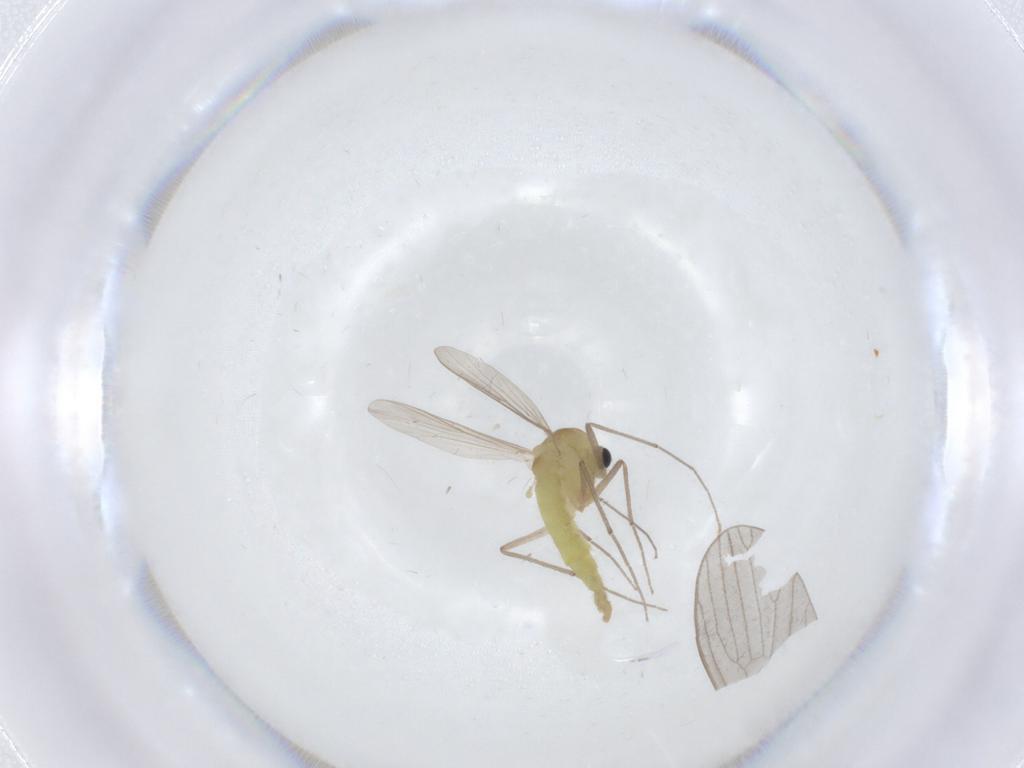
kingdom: Animalia
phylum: Arthropoda
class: Insecta
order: Diptera
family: Chironomidae
